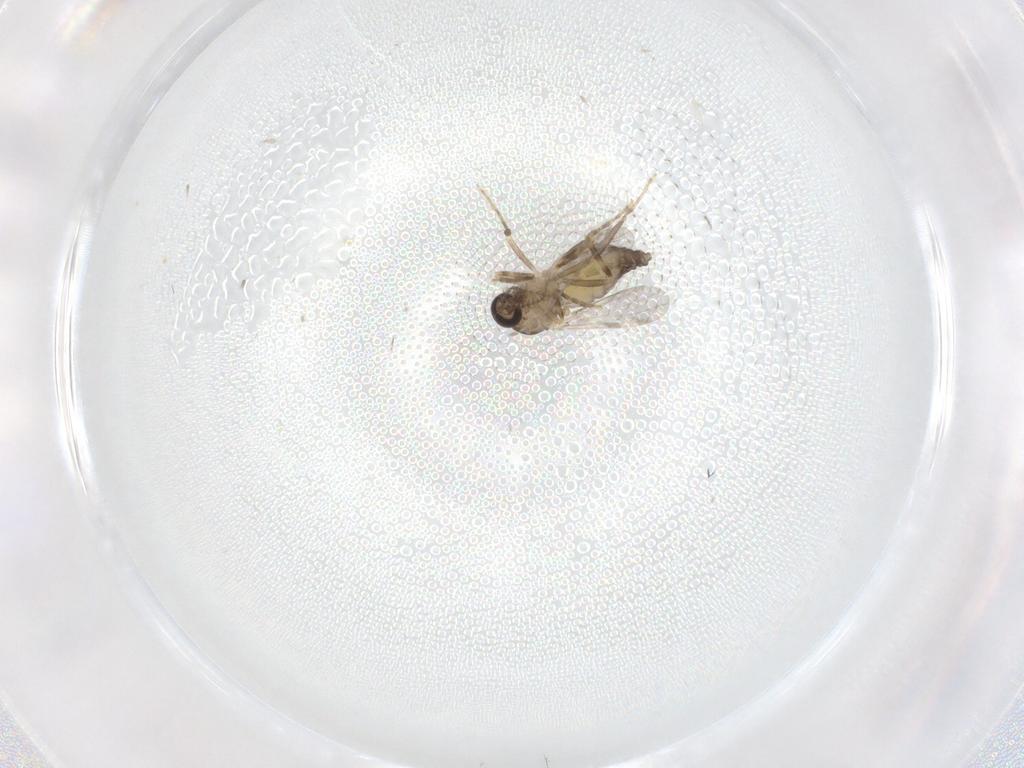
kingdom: Animalia
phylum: Arthropoda
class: Insecta
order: Diptera
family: Ceratopogonidae
